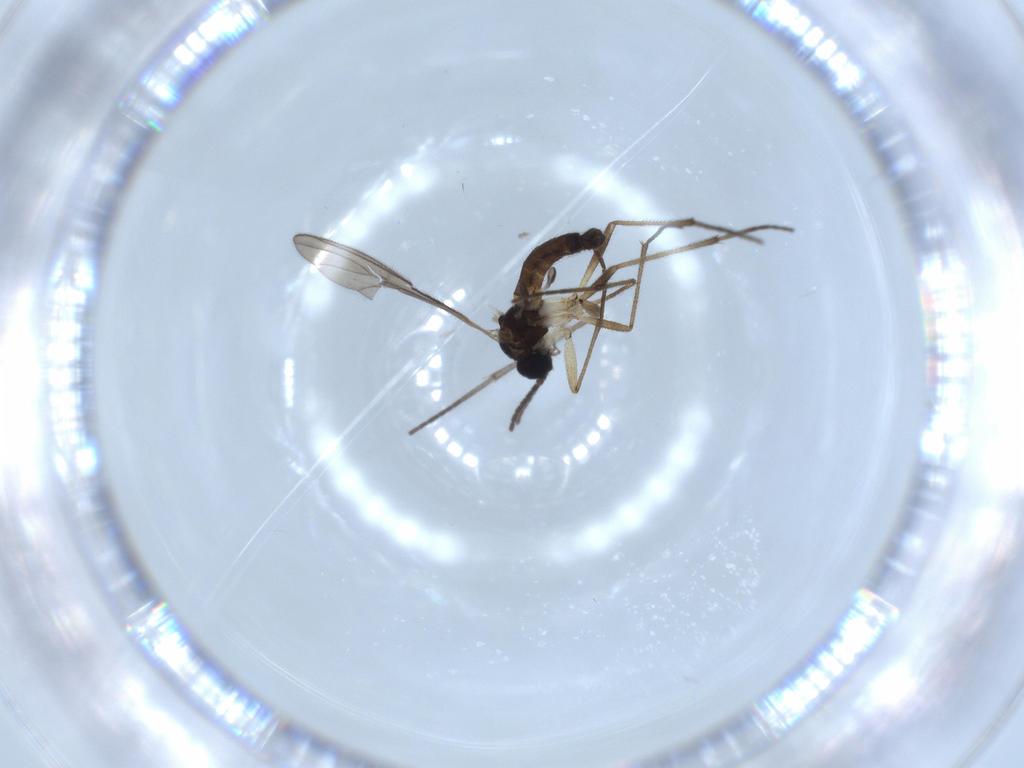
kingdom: Animalia
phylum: Arthropoda
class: Insecta
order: Diptera
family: Sciaridae
